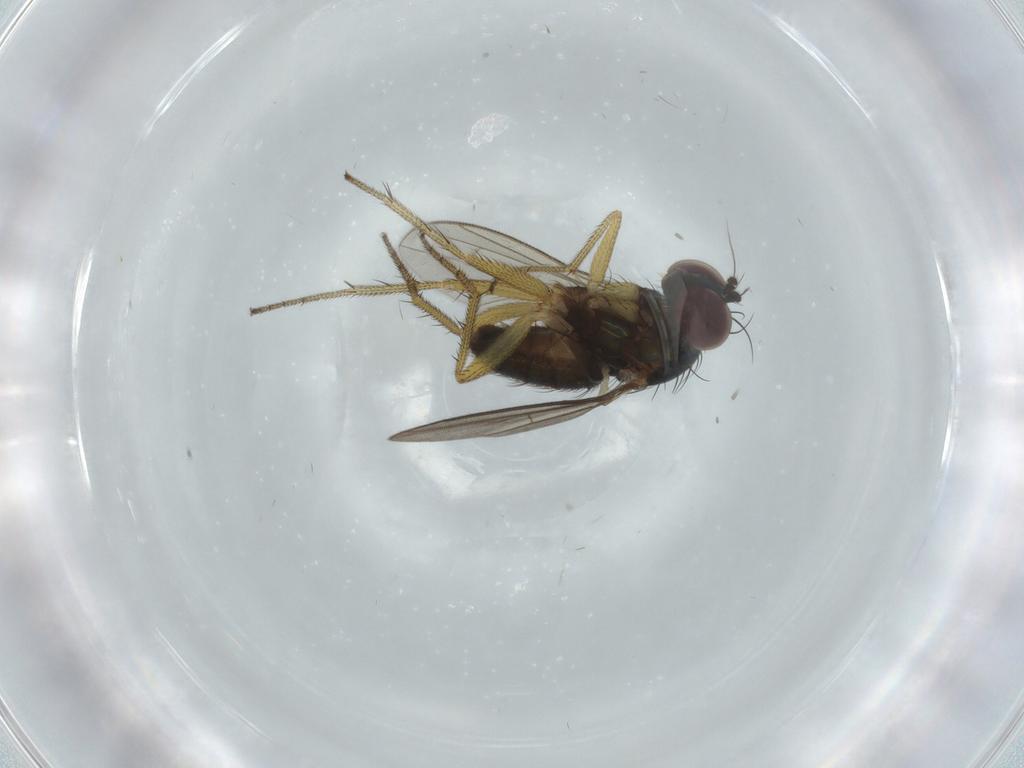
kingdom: Animalia
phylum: Arthropoda
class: Insecta
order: Diptera
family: Dolichopodidae
